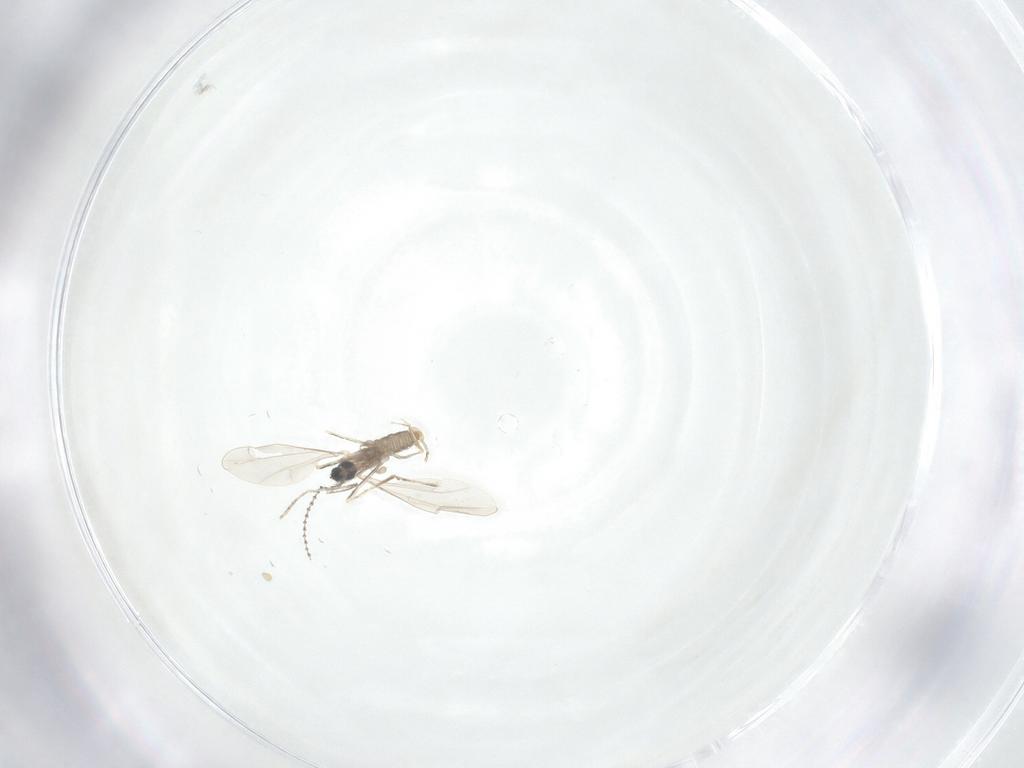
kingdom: Animalia
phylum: Arthropoda
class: Insecta
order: Diptera
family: Cecidomyiidae
